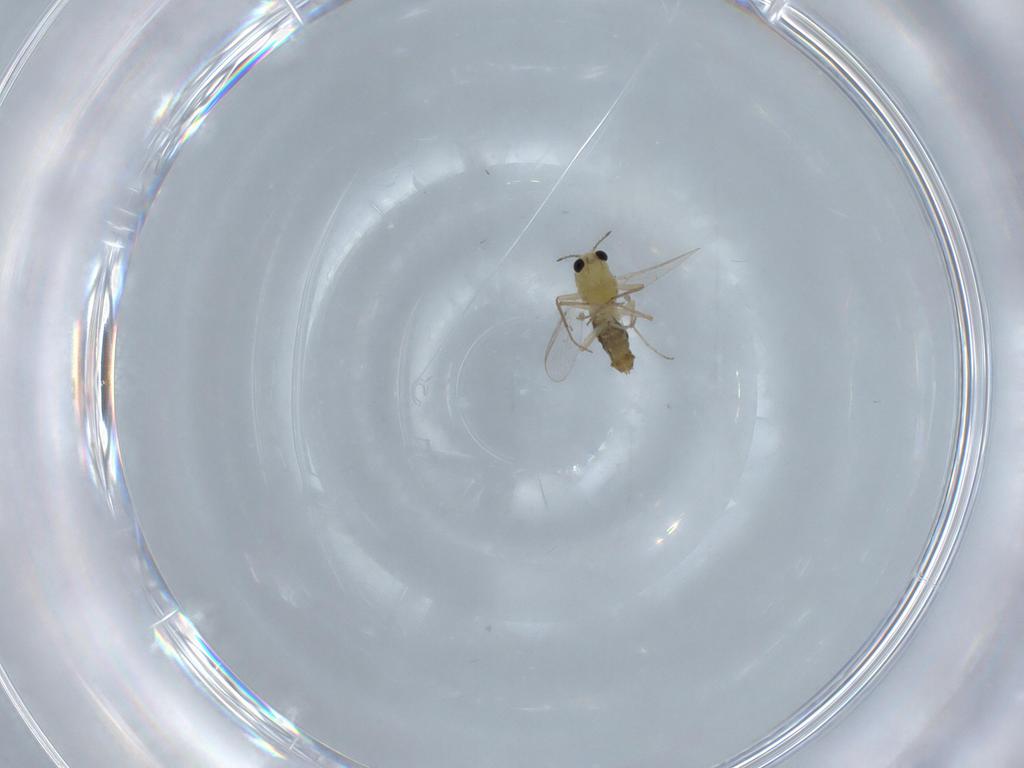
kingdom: Animalia
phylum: Arthropoda
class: Insecta
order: Diptera
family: Chironomidae
